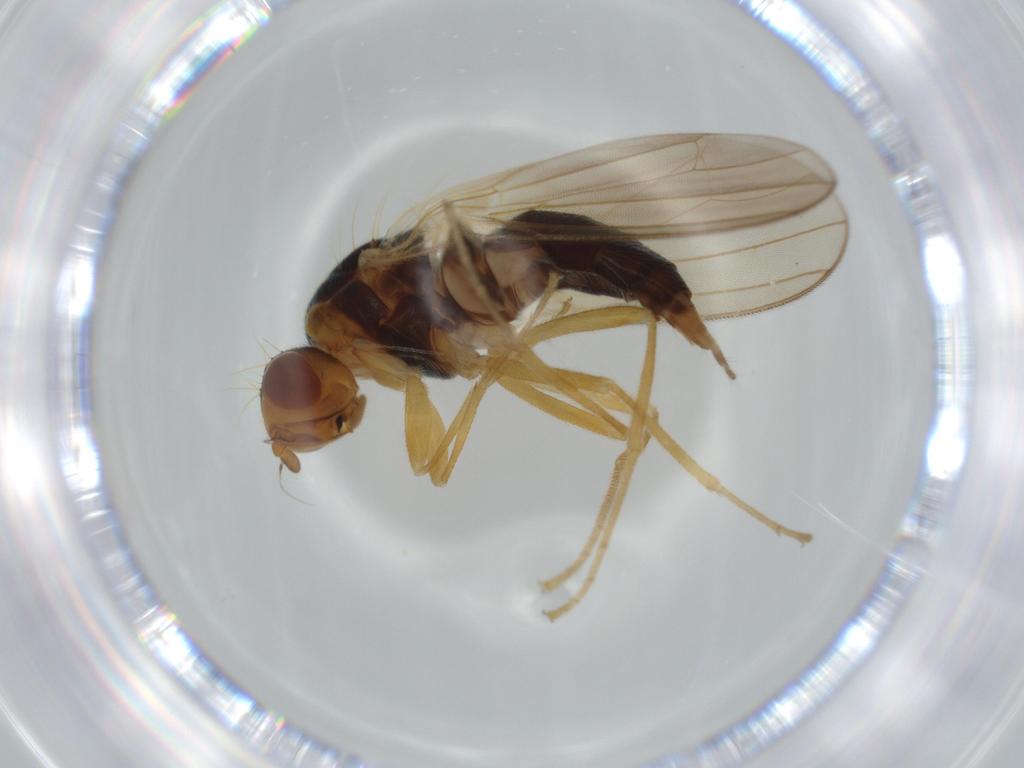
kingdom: Animalia
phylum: Arthropoda
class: Insecta
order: Diptera
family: Syrphidae
